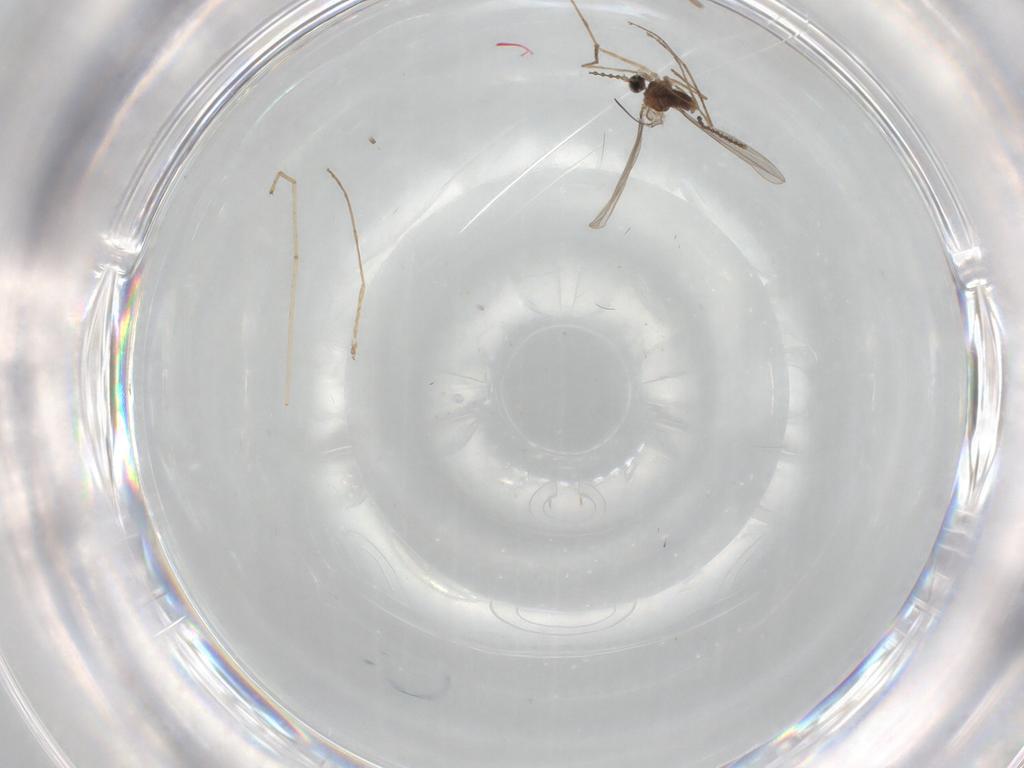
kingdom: Animalia
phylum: Arthropoda
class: Insecta
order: Diptera
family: Cecidomyiidae
